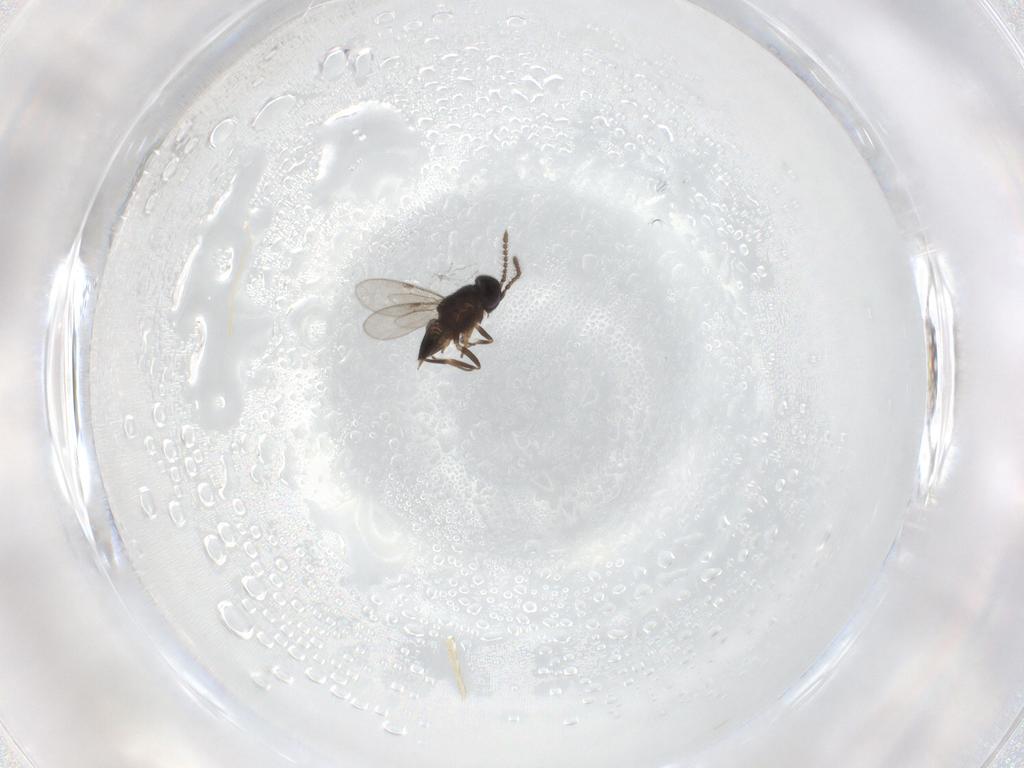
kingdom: Animalia
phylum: Arthropoda
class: Insecta
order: Hymenoptera
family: Encyrtidae
